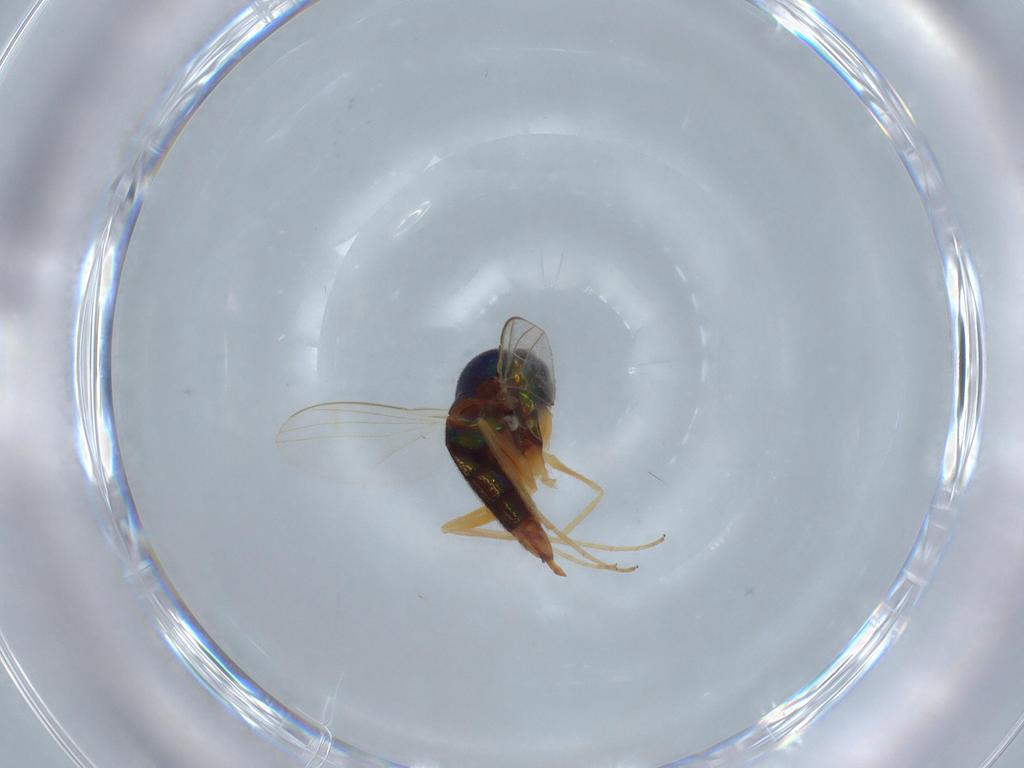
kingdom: Animalia
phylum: Arthropoda
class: Insecta
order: Diptera
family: Dolichopodidae
